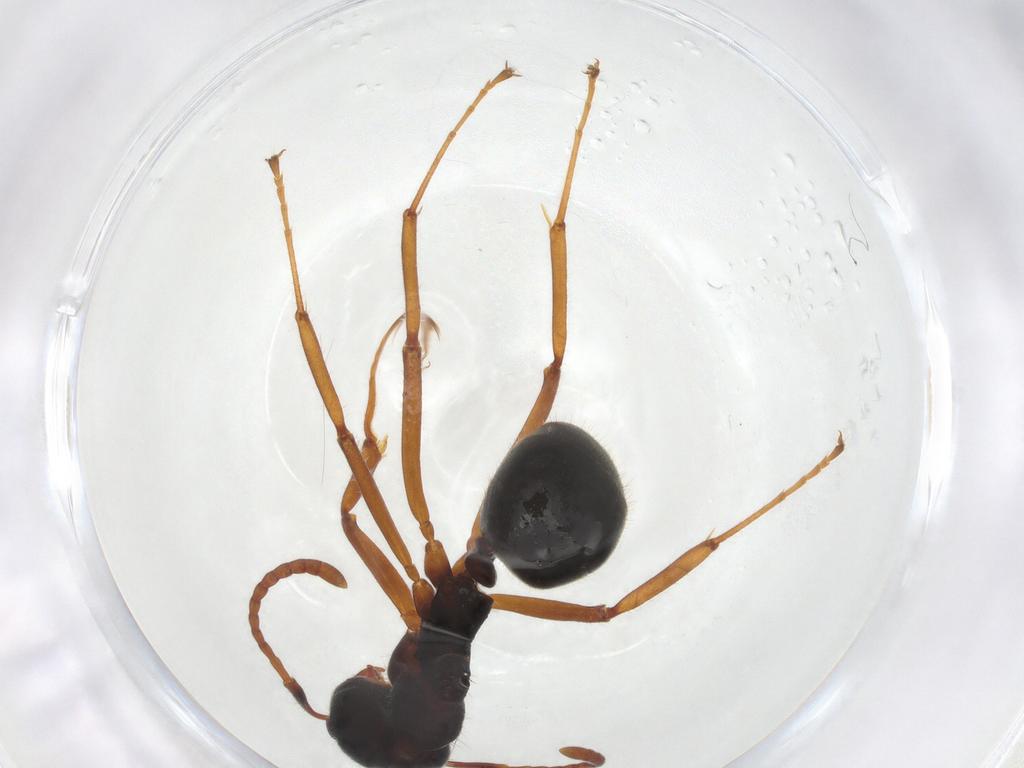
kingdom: Animalia
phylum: Arthropoda
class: Insecta
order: Hymenoptera
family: Formicidae
